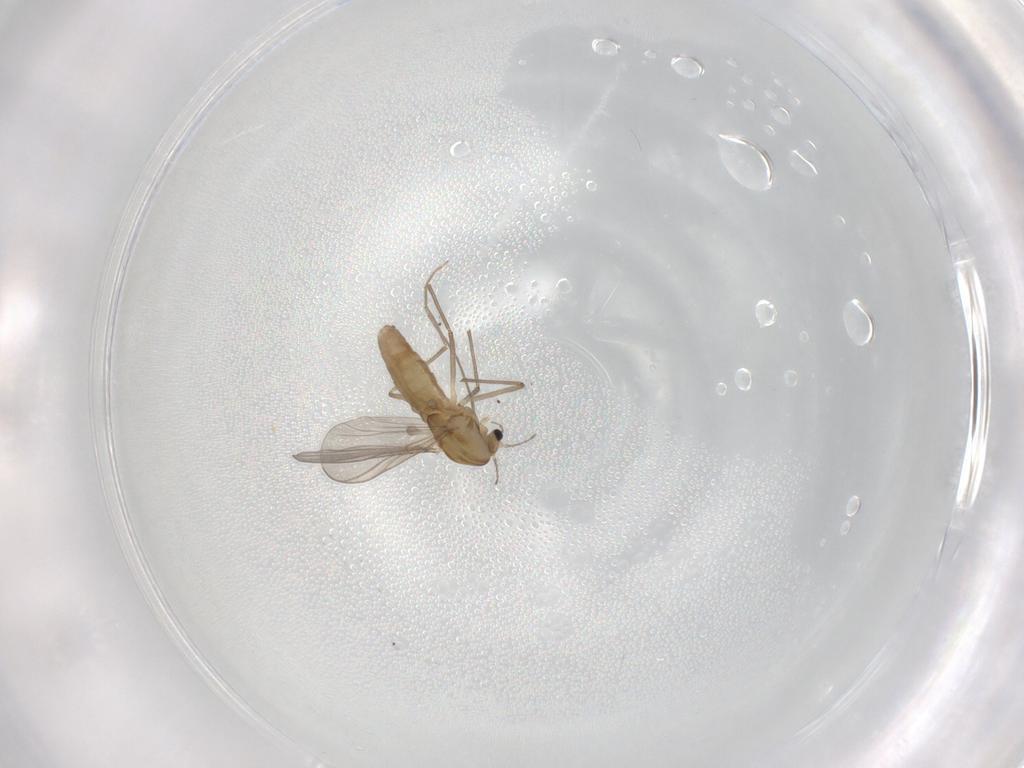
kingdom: Animalia
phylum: Arthropoda
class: Insecta
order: Diptera
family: Chironomidae
